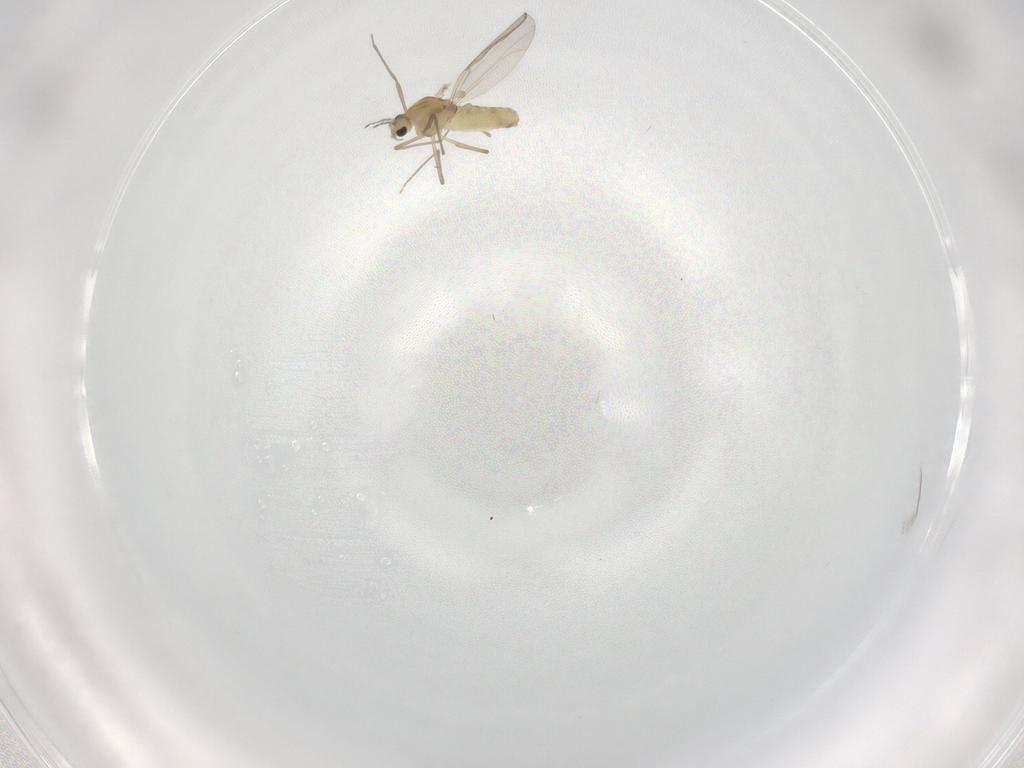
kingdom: Animalia
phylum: Arthropoda
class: Insecta
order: Diptera
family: Chironomidae
